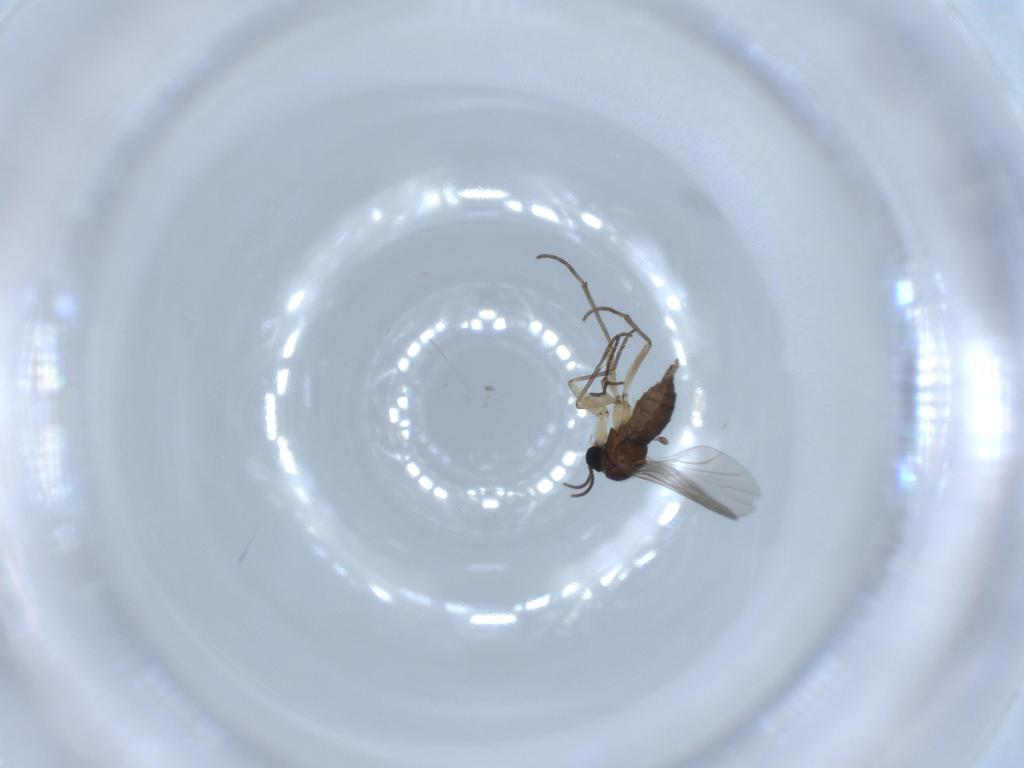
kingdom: Animalia
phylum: Arthropoda
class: Insecta
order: Diptera
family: Sciaridae
